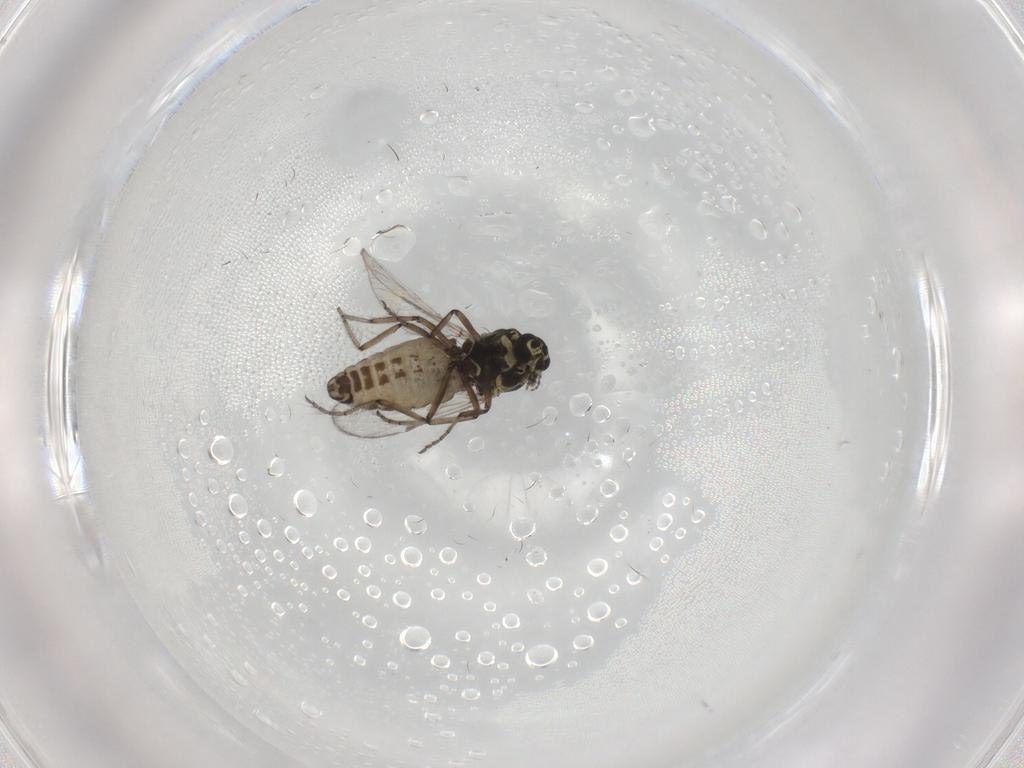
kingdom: Animalia
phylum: Arthropoda
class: Insecta
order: Diptera
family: Ceratopogonidae
